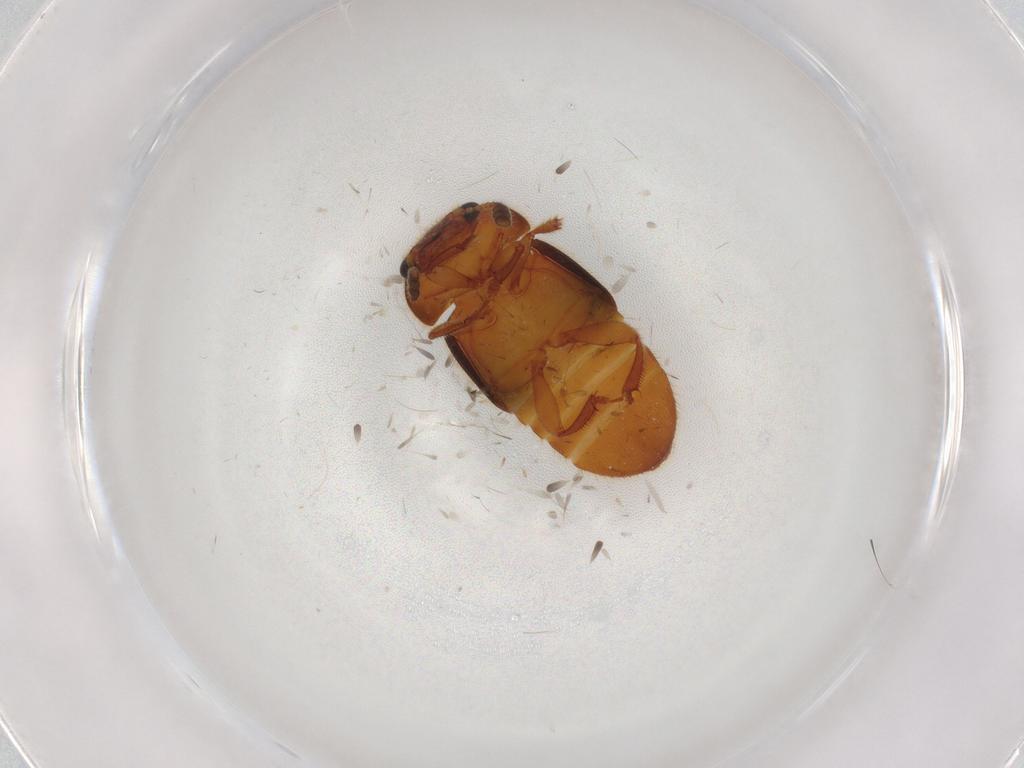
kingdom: Animalia
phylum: Arthropoda
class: Insecta
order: Coleoptera
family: Nitidulidae
